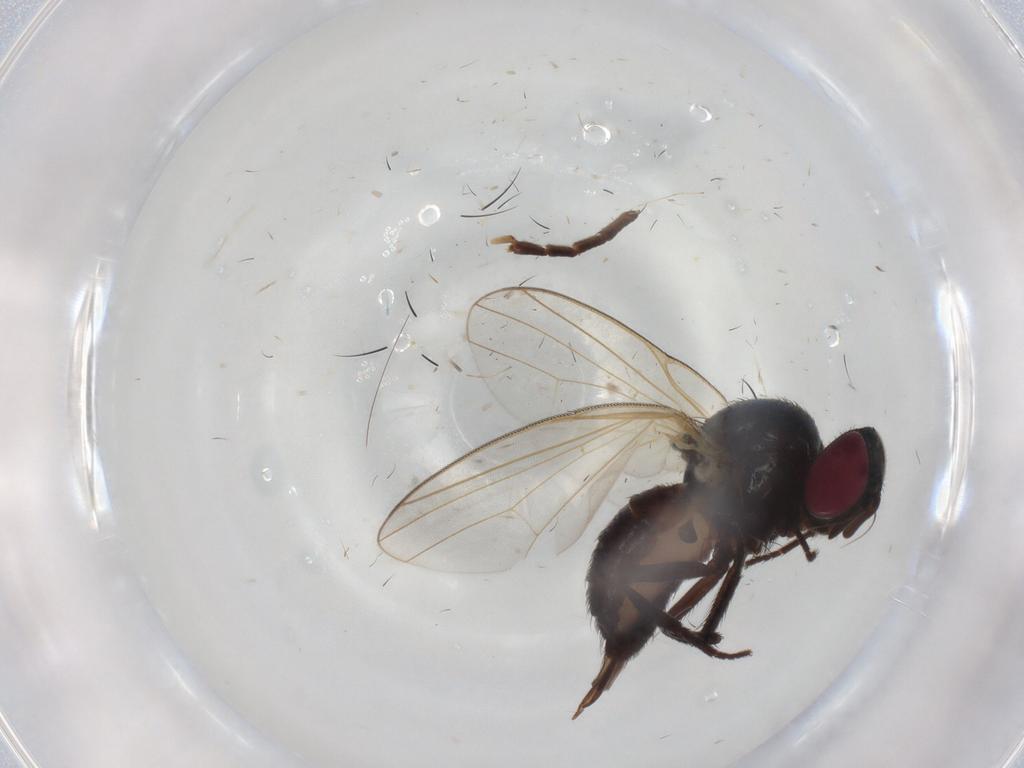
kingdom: Animalia
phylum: Arthropoda
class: Insecta
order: Diptera
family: Lonchaeidae
